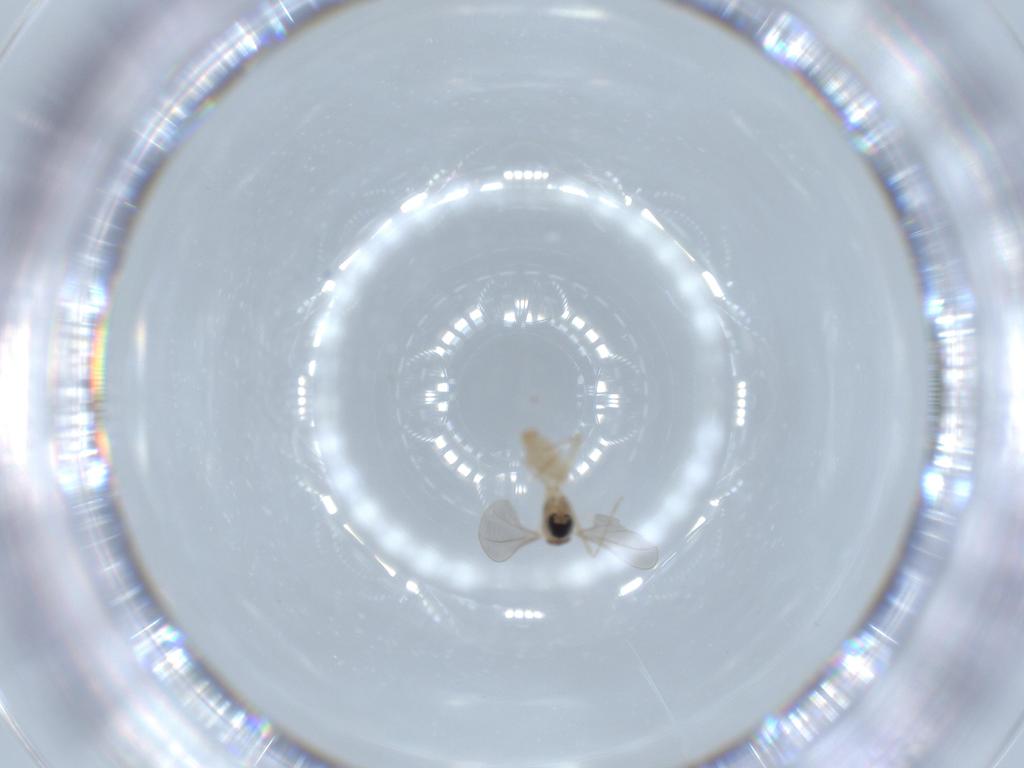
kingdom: Animalia
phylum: Arthropoda
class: Insecta
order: Diptera
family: Cecidomyiidae
